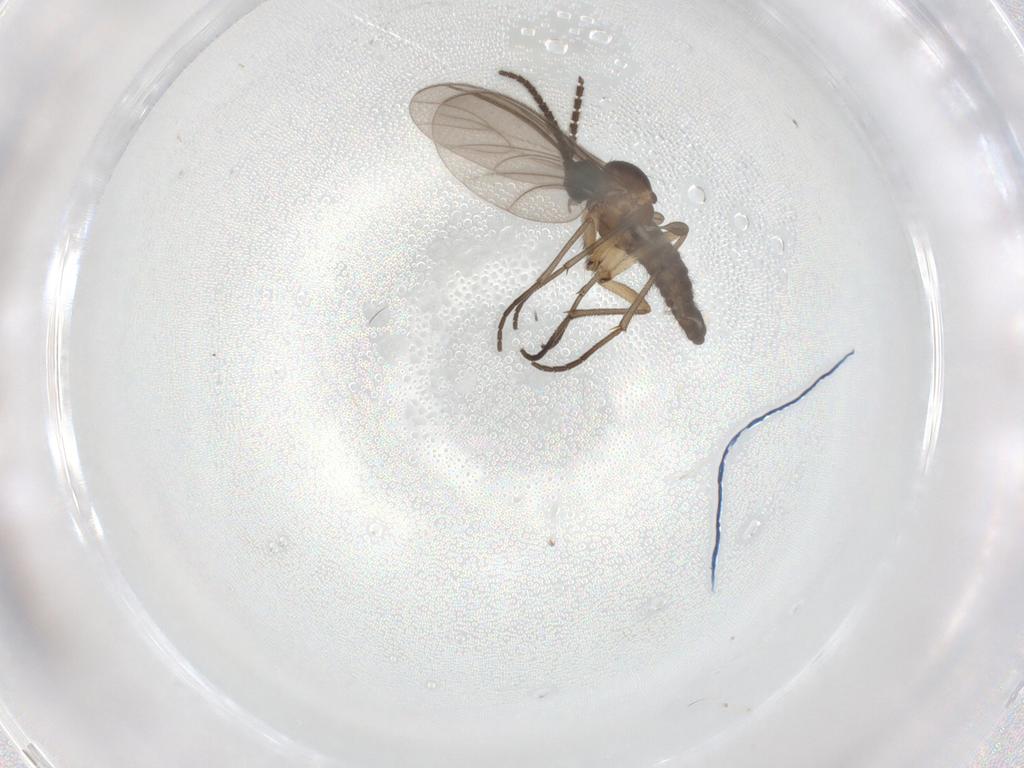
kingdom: Animalia
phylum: Arthropoda
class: Insecta
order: Diptera
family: Sciaridae
